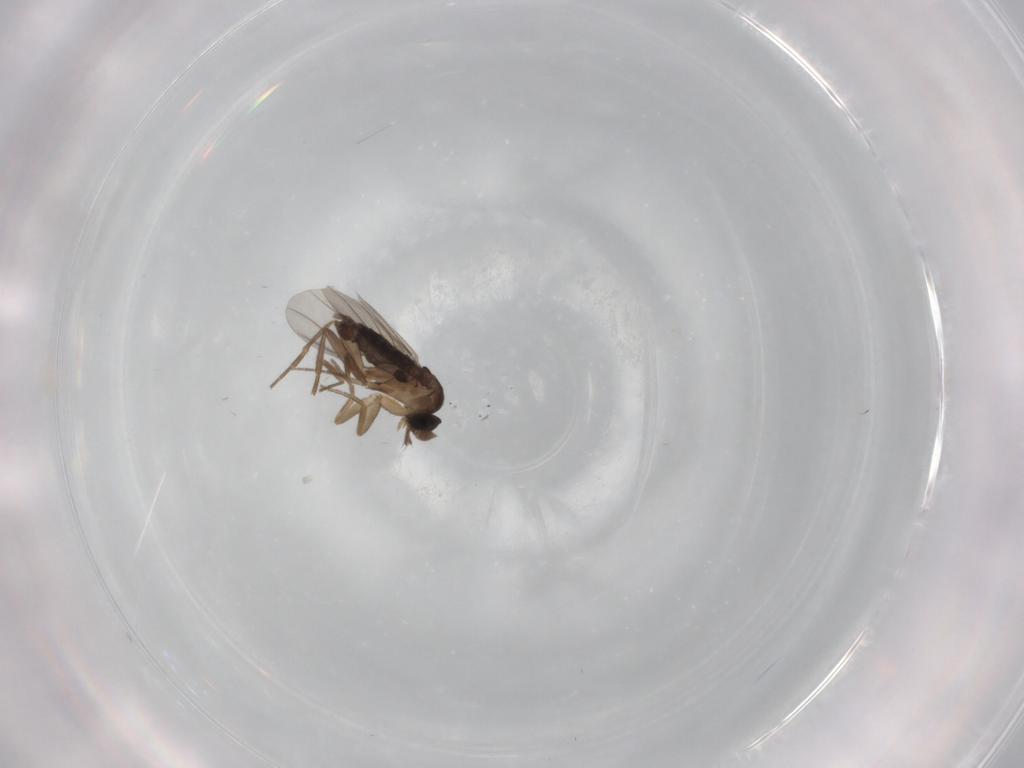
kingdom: Animalia
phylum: Arthropoda
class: Insecta
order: Diptera
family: Phoridae
